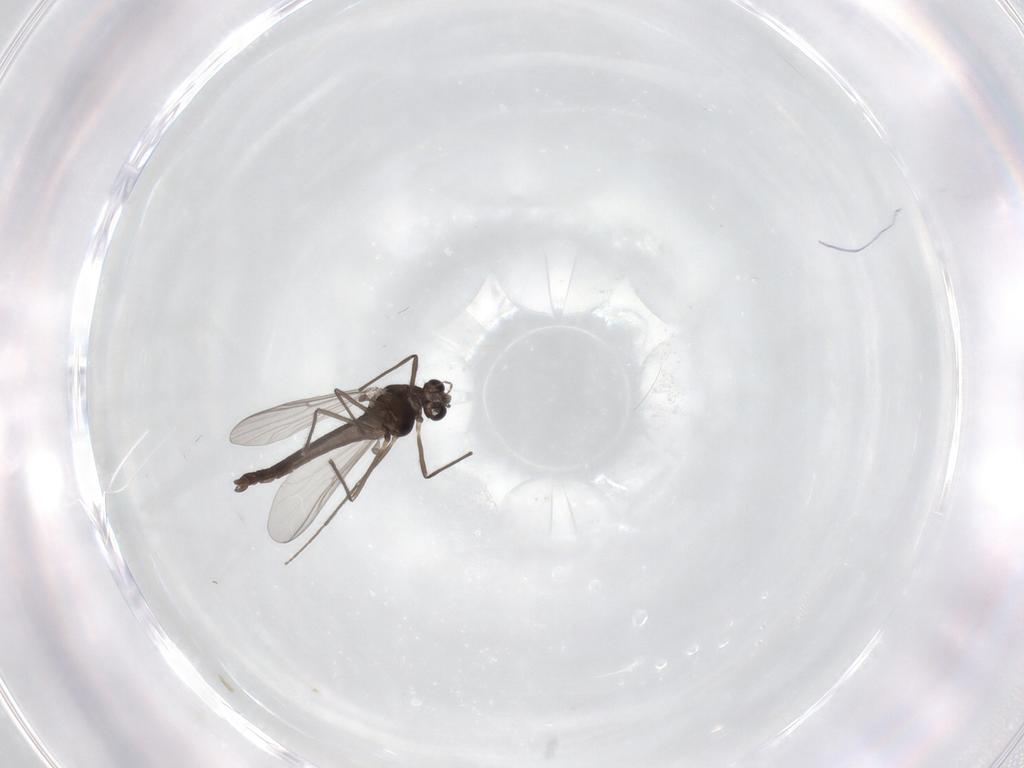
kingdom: Animalia
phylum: Arthropoda
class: Insecta
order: Diptera
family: Chironomidae
